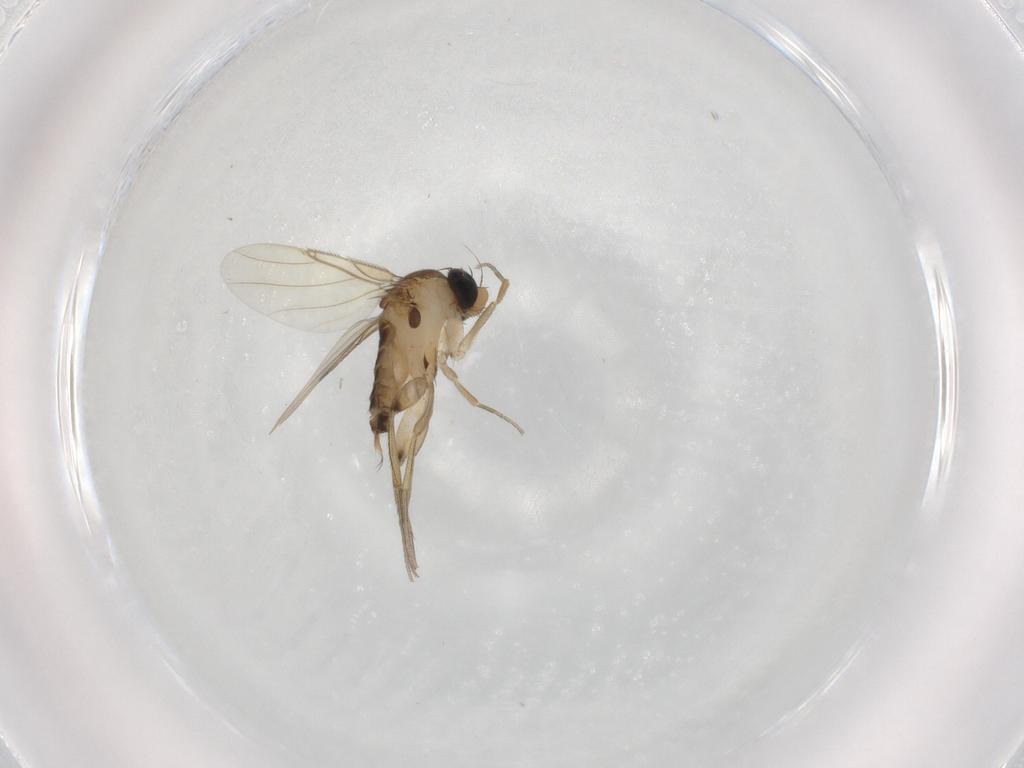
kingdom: Animalia
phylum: Arthropoda
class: Insecta
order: Diptera
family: Phoridae
